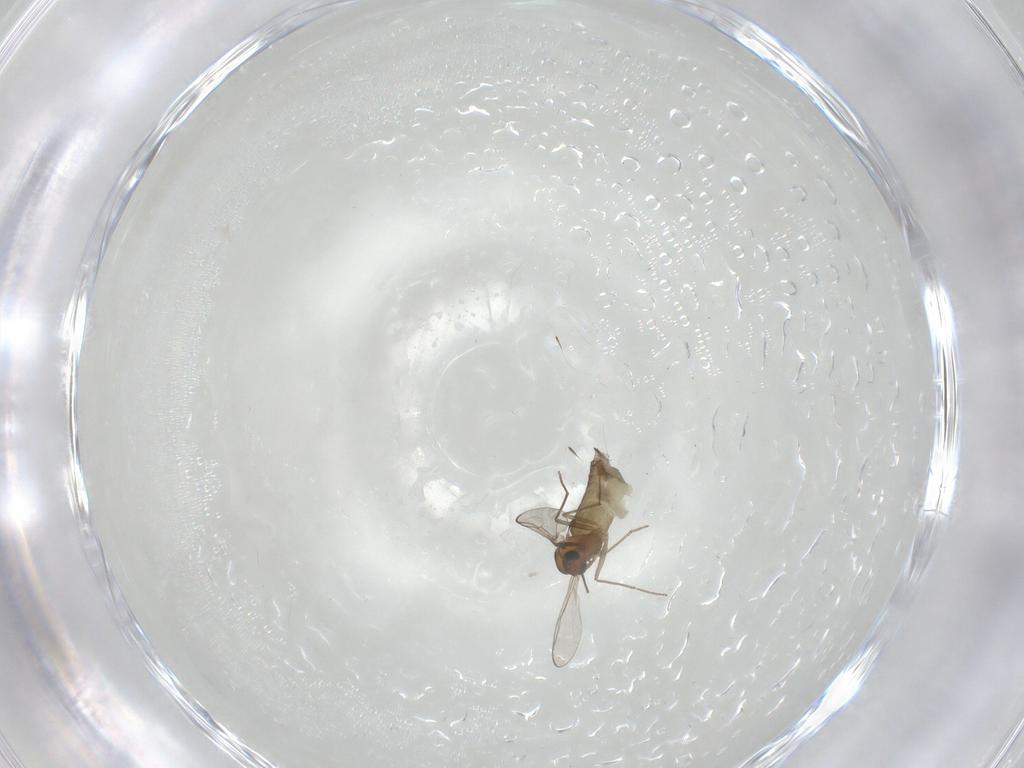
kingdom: Animalia
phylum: Arthropoda
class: Insecta
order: Diptera
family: Chironomidae
